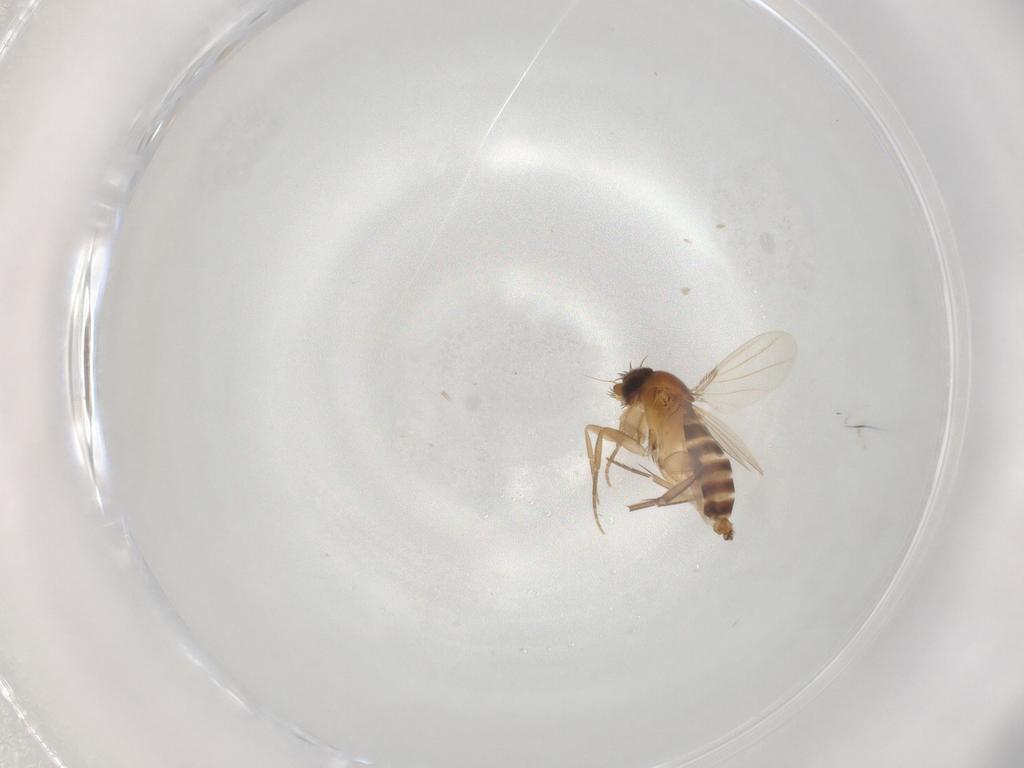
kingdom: Animalia
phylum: Arthropoda
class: Insecta
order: Diptera
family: Phoridae
